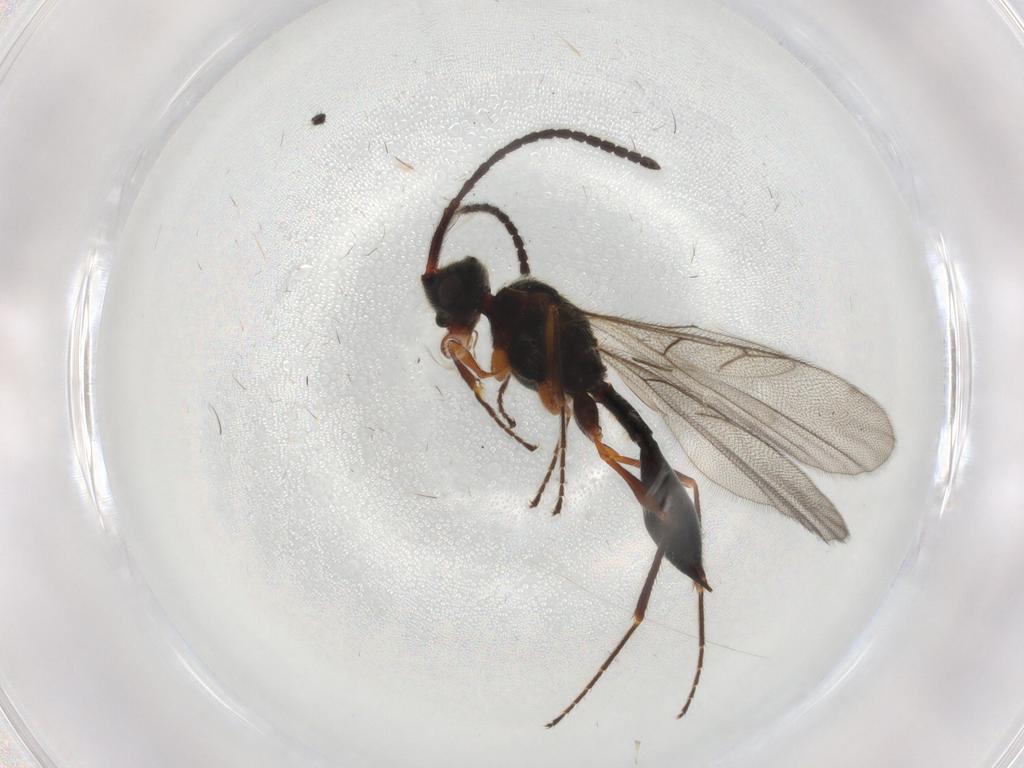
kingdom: Animalia
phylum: Arthropoda
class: Insecta
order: Hymenoptera
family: Diapriidae
